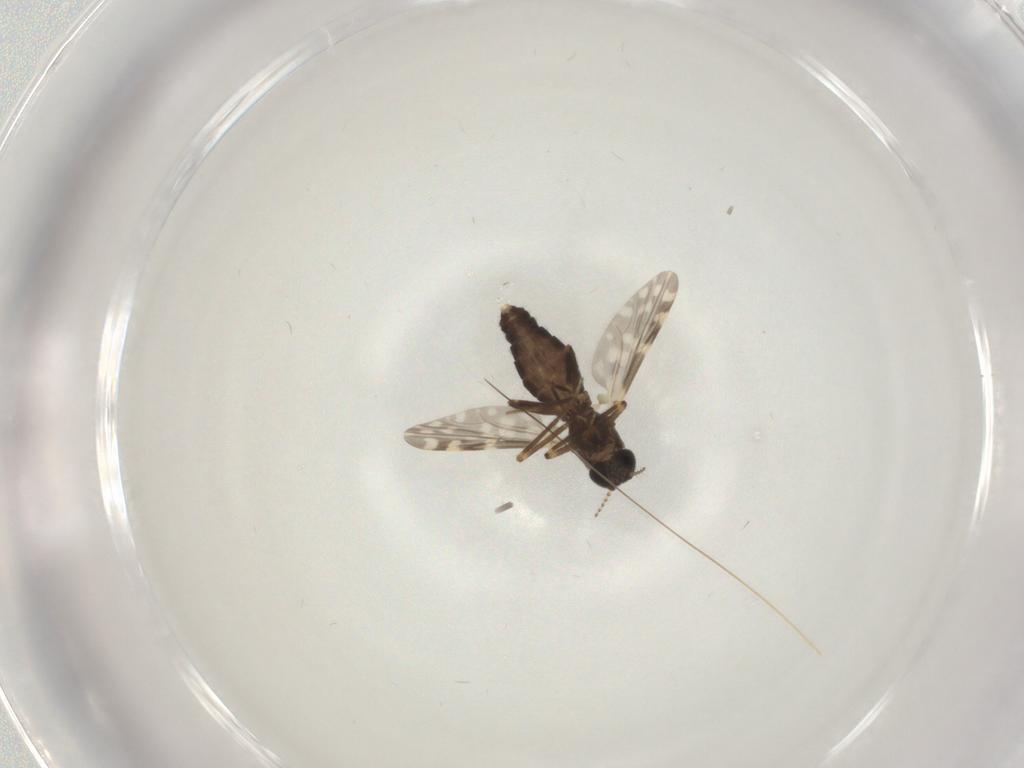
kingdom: Animalia
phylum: Arthropoda
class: Insecta
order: Diptera
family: Ceratopogonidae
